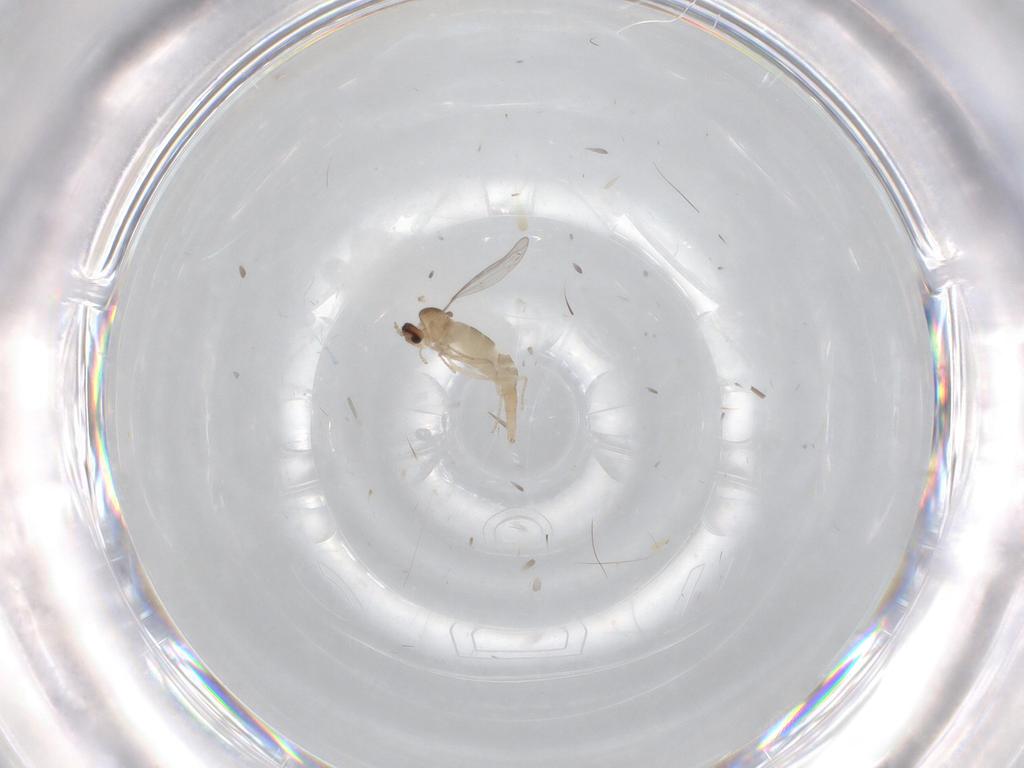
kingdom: Animalia
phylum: Arthropoda
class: Insecta
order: Diptera
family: Cecidomyiidae
